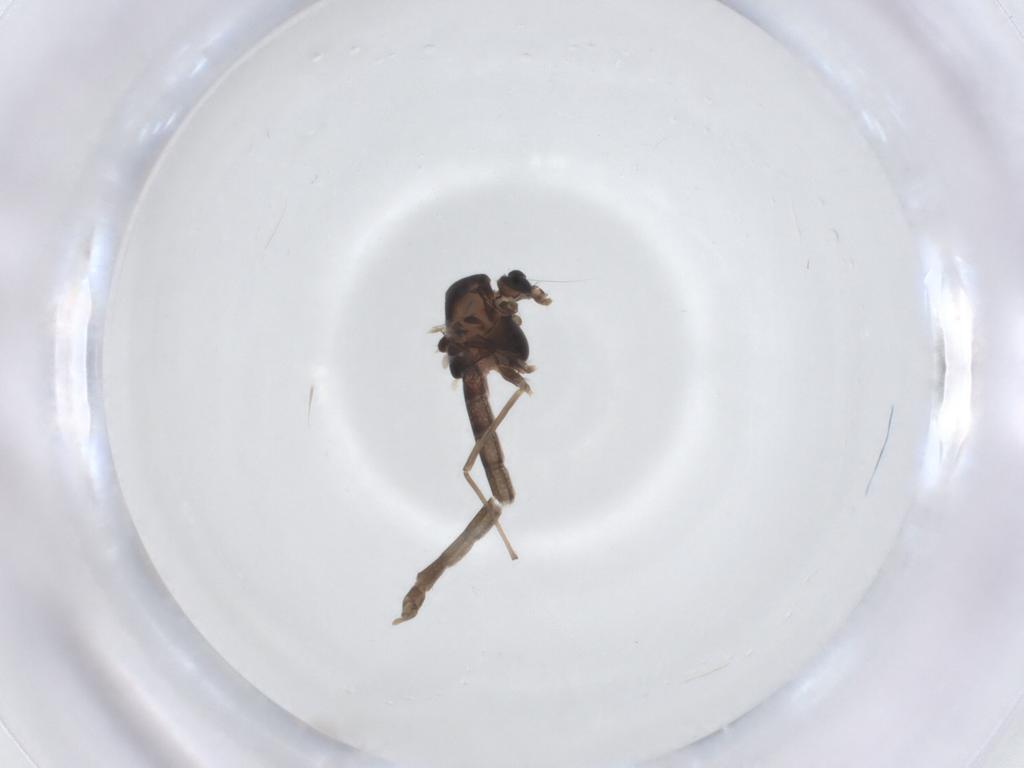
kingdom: Animalia
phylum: Arthropoda
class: Insecta
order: Diptera
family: Chironomidae
